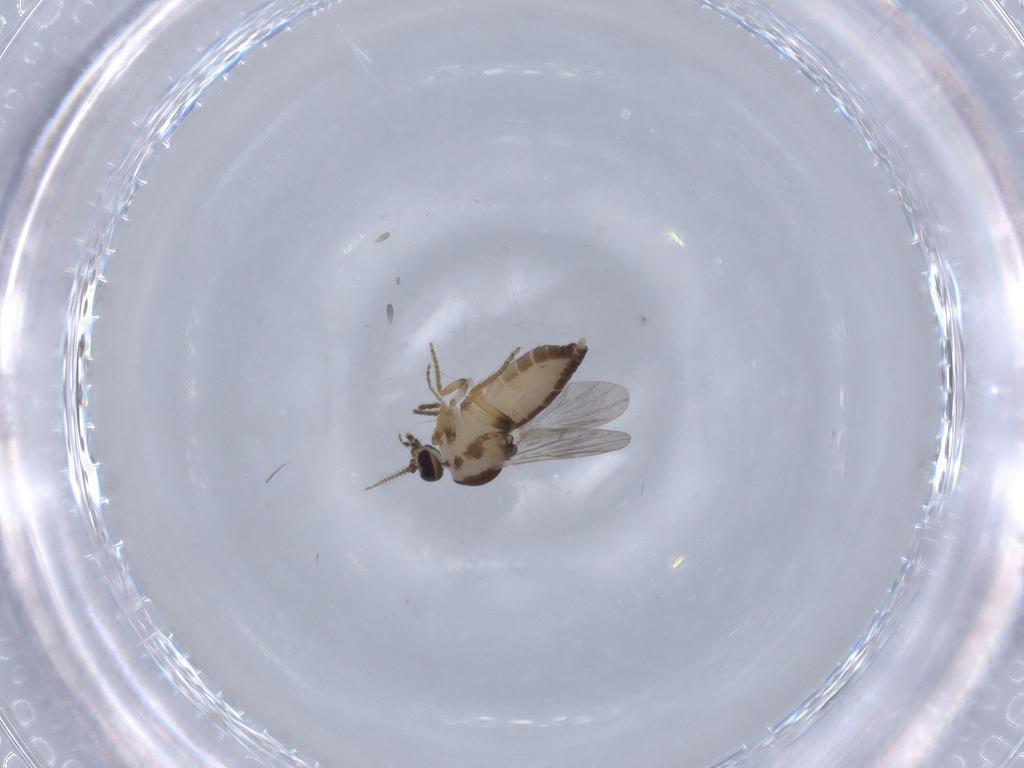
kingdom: Animalia
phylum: Arthropoda
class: Insecta
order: Diptera
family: Ceratopogonidae
